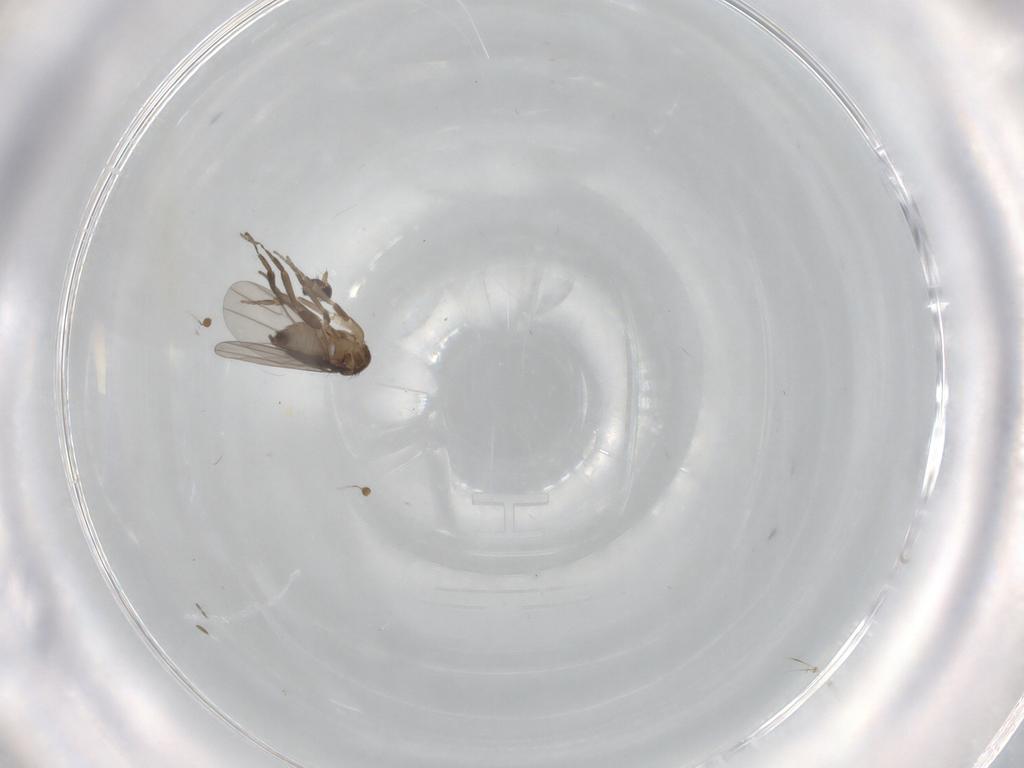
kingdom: Animalia
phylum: Arthropoda
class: Insecta
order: Diptera
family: Phoridae
